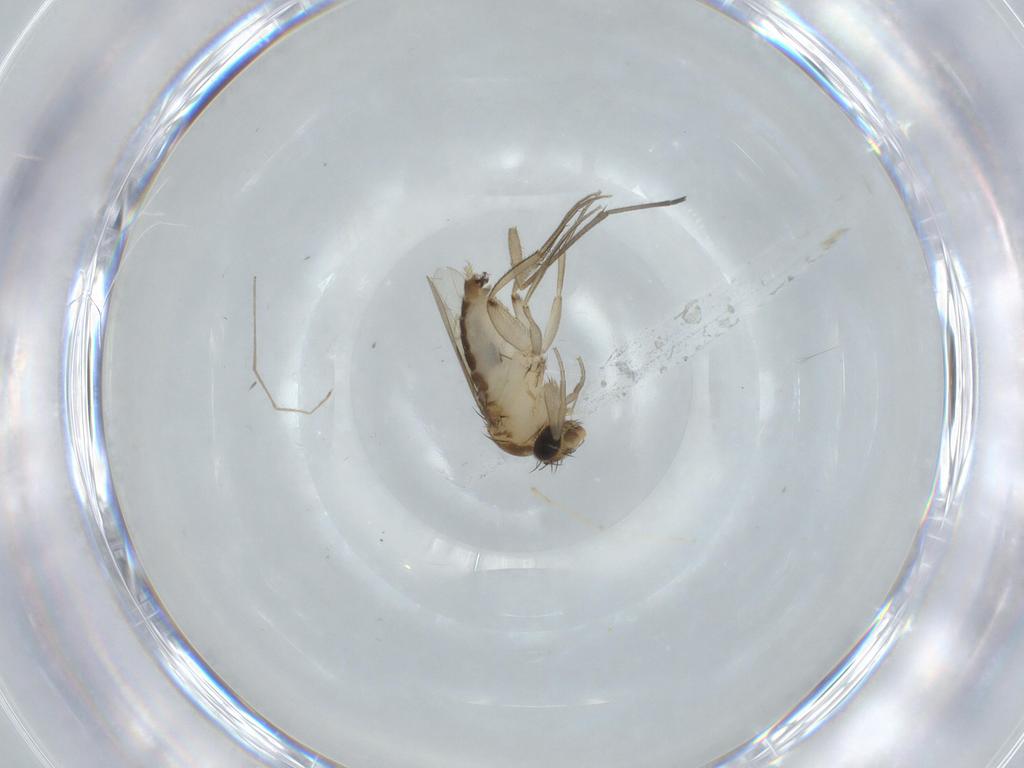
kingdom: Animalia
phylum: Arthropoda
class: Insecta
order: Diptera
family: Phoridae
